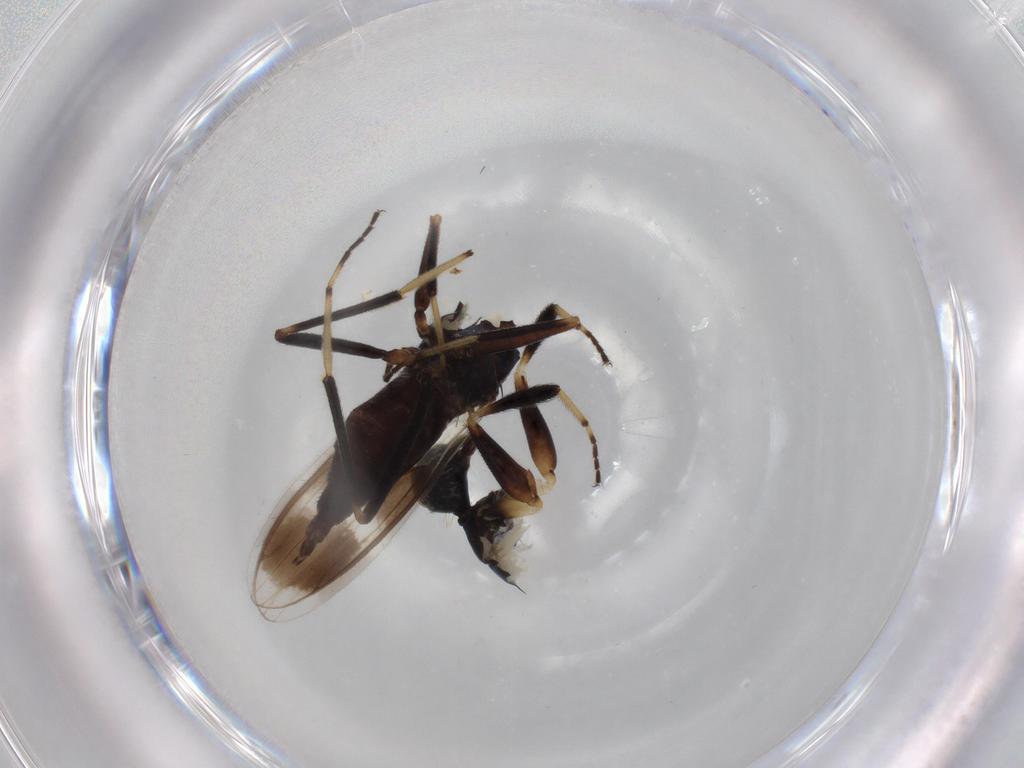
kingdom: Animalia
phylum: Arthropoda
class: Insecta
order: Diptera
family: Hybotidae
